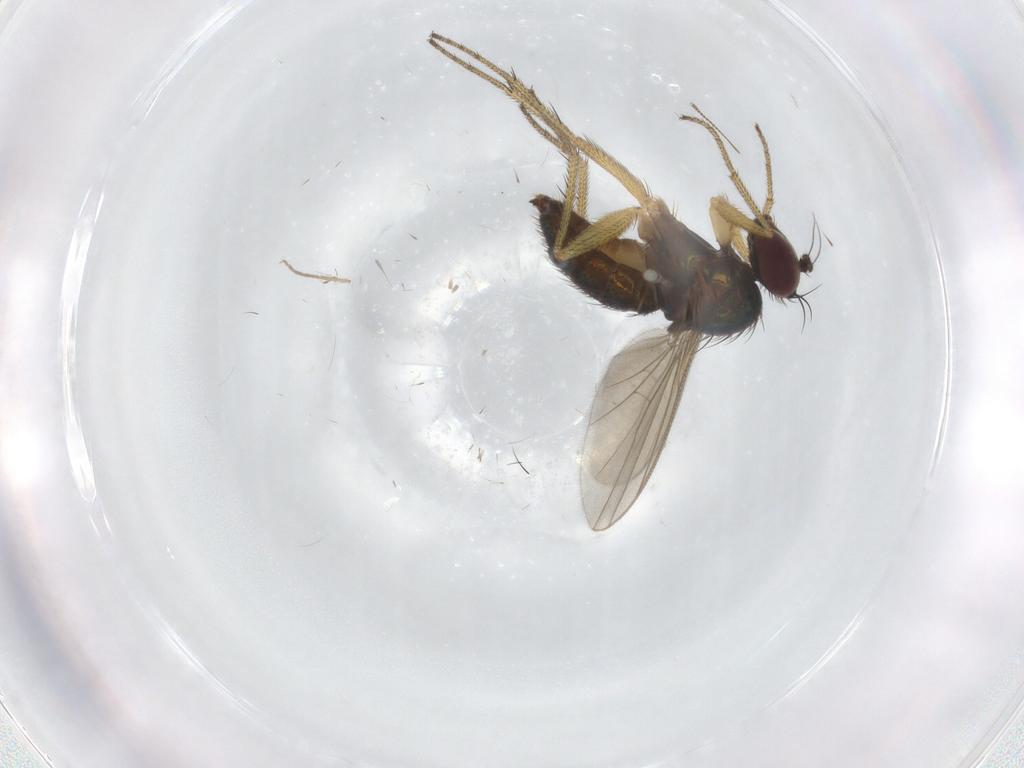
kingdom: Animalia
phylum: Arthropoda
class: Insecta
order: Diptera
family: Dolichopodidae
